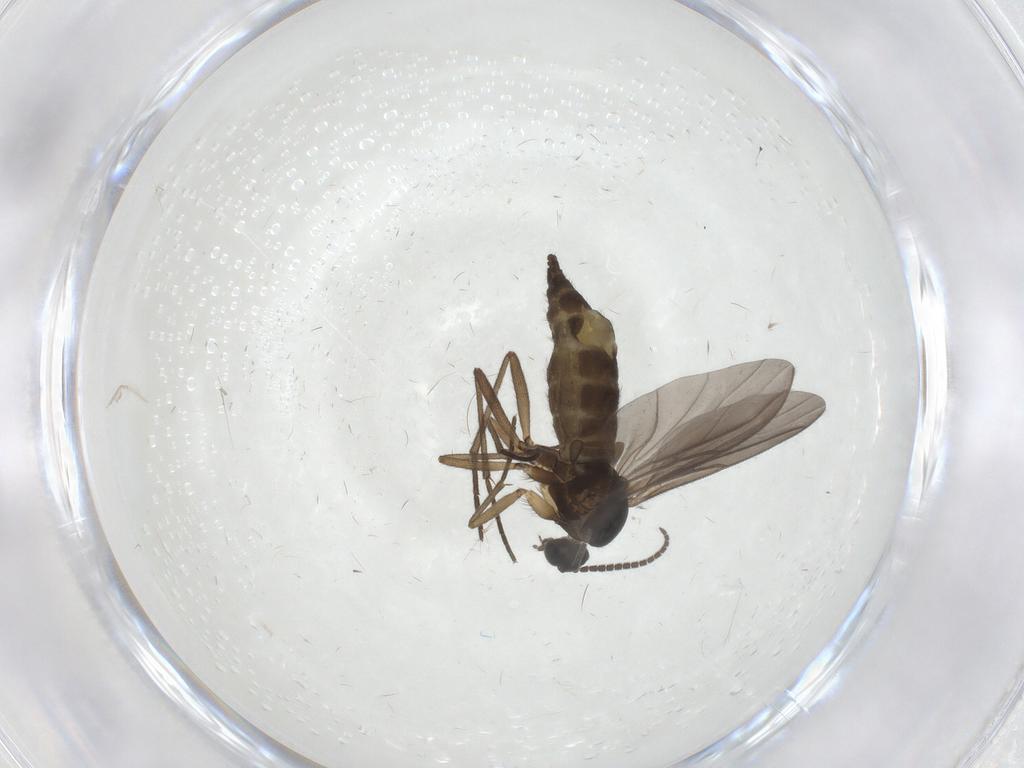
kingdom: Animalia
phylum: Arthropoda
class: Insecta
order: Diptera
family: Sciaridae
